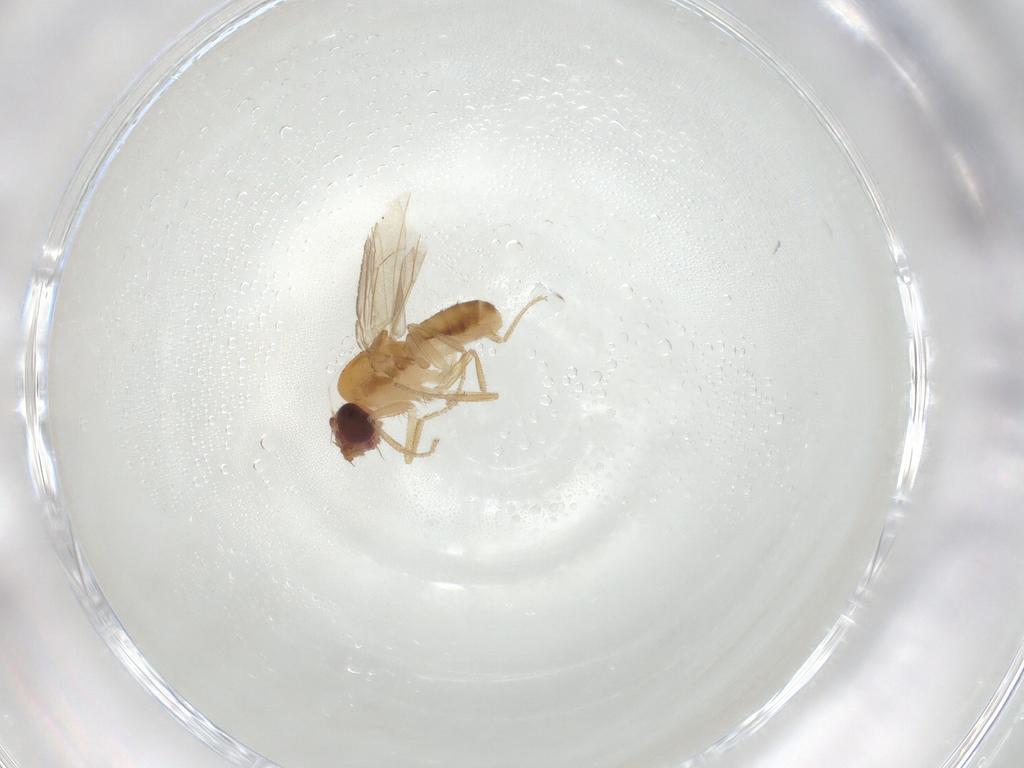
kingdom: Animalia
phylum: Arthropoda
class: Insecta
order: Diptera
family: Drosophilidae
